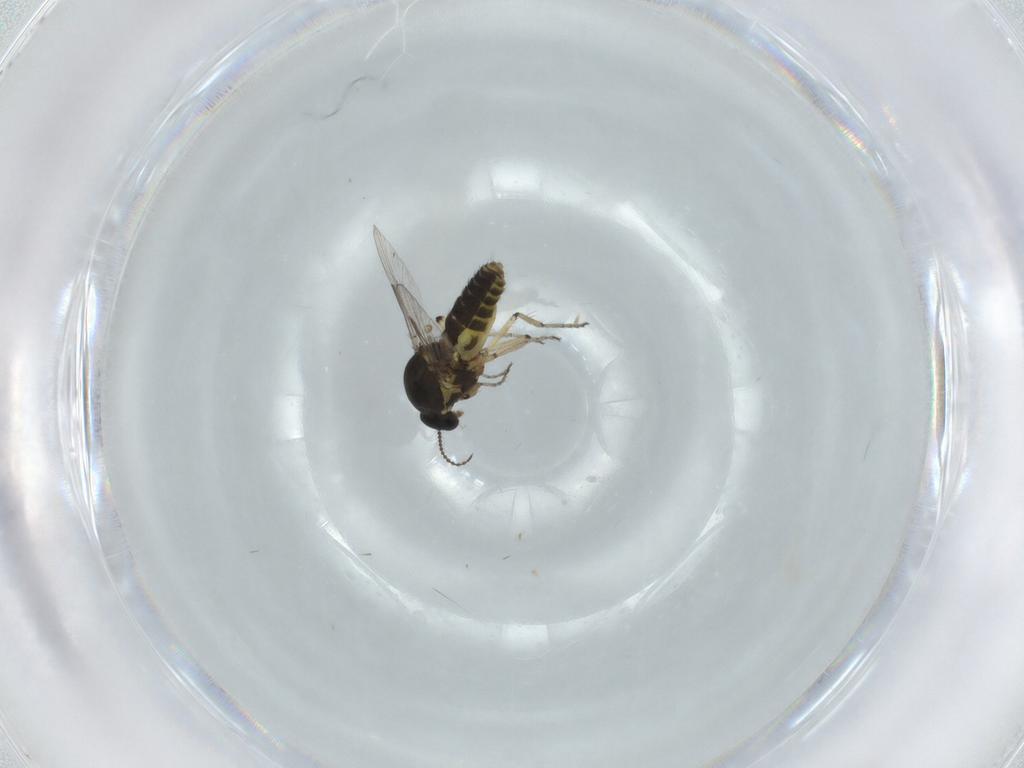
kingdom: Animalia
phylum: Arthropoda
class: Insecta
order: Diptera
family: Ceratopogonidae
